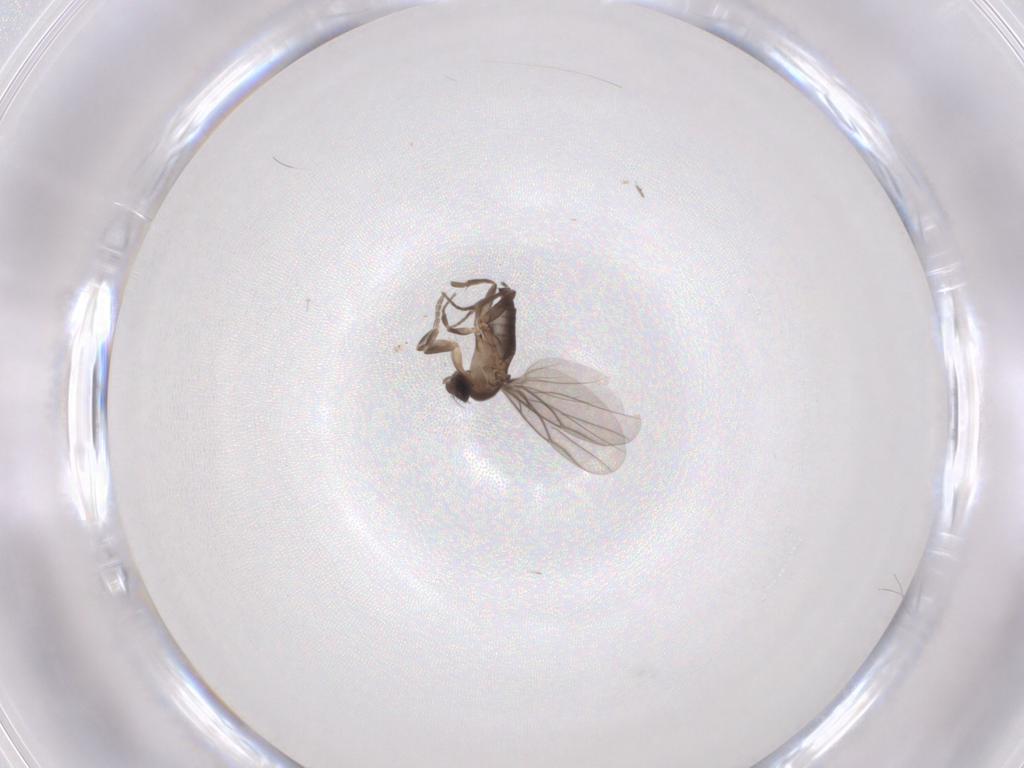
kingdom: Animalia
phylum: Arthropoda
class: Insecta
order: Diptera
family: Phoridae
